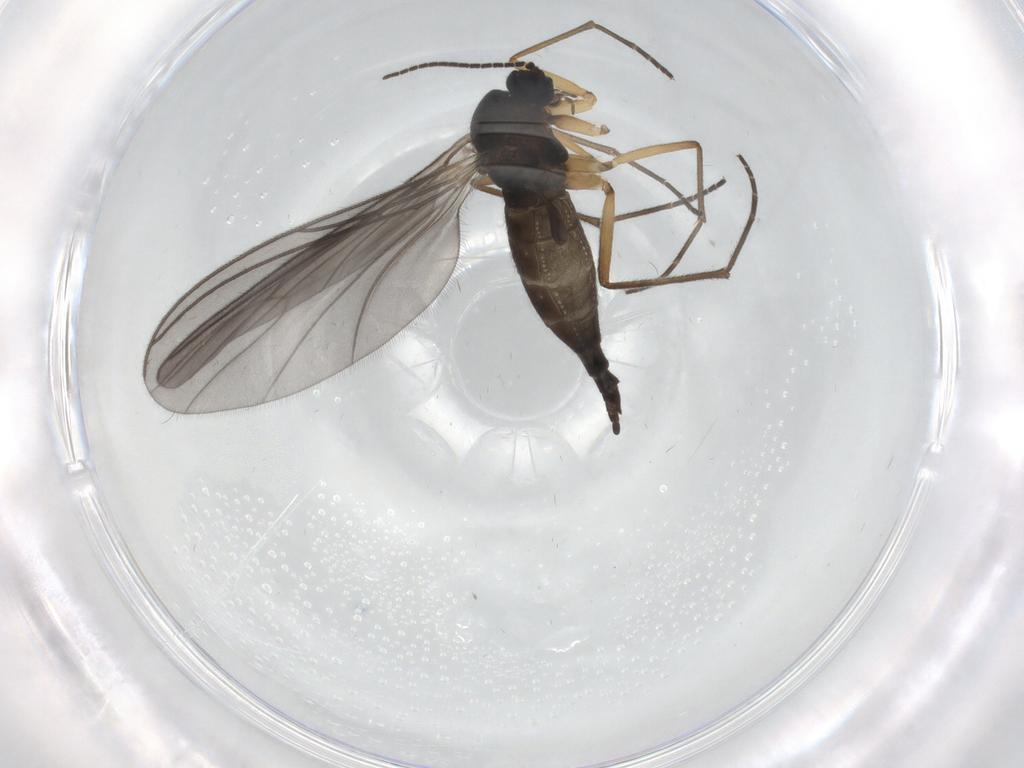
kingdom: Animalia
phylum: Arthropoda
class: Insecta
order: Diptera
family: Sciaridae
